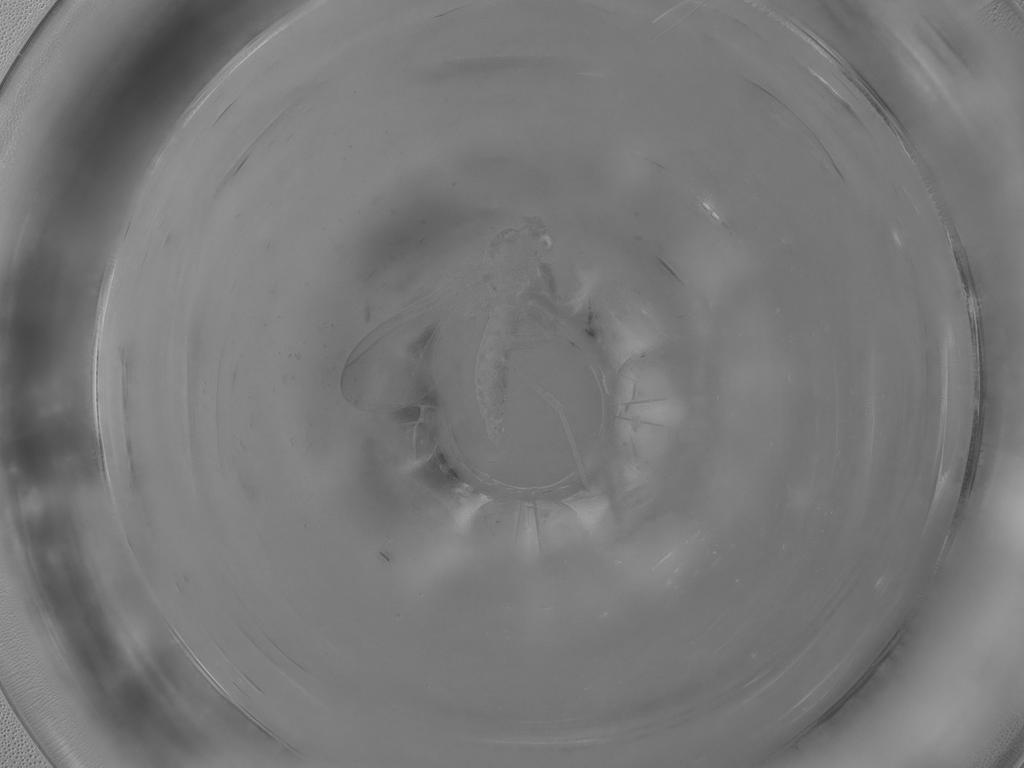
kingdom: Animalia
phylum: Arthropoda
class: Insecta
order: Diptera
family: Sciaridae
